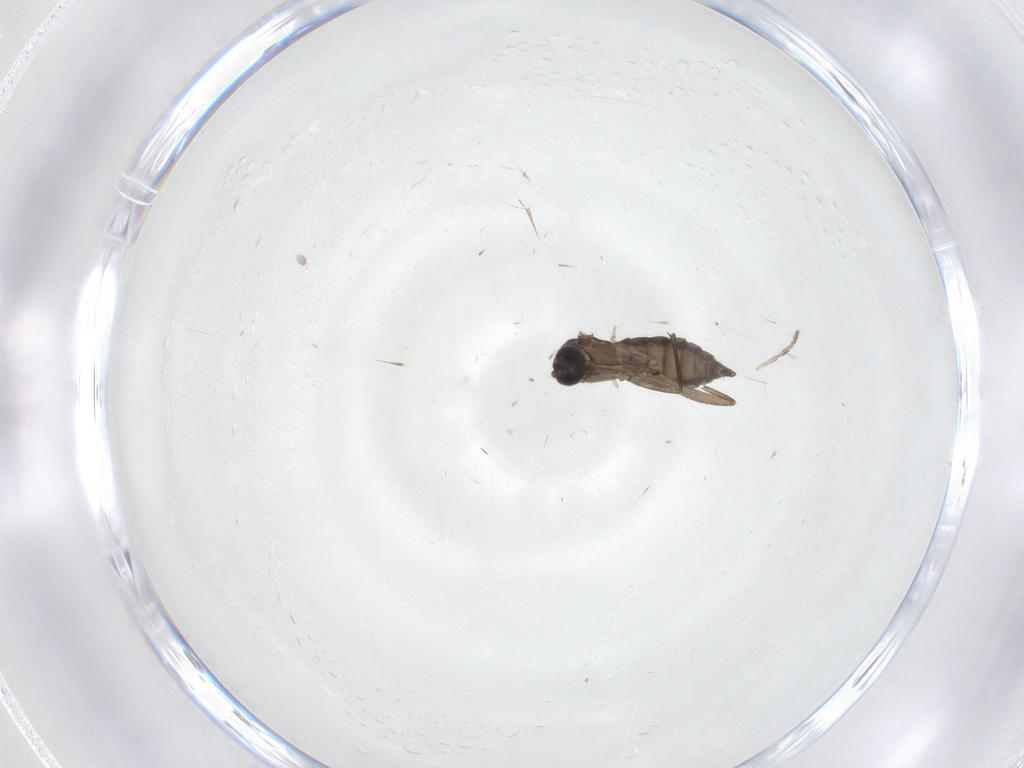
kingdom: Animalia
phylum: Arthropoda
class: Insecta
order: Diptera
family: Sciaridae
